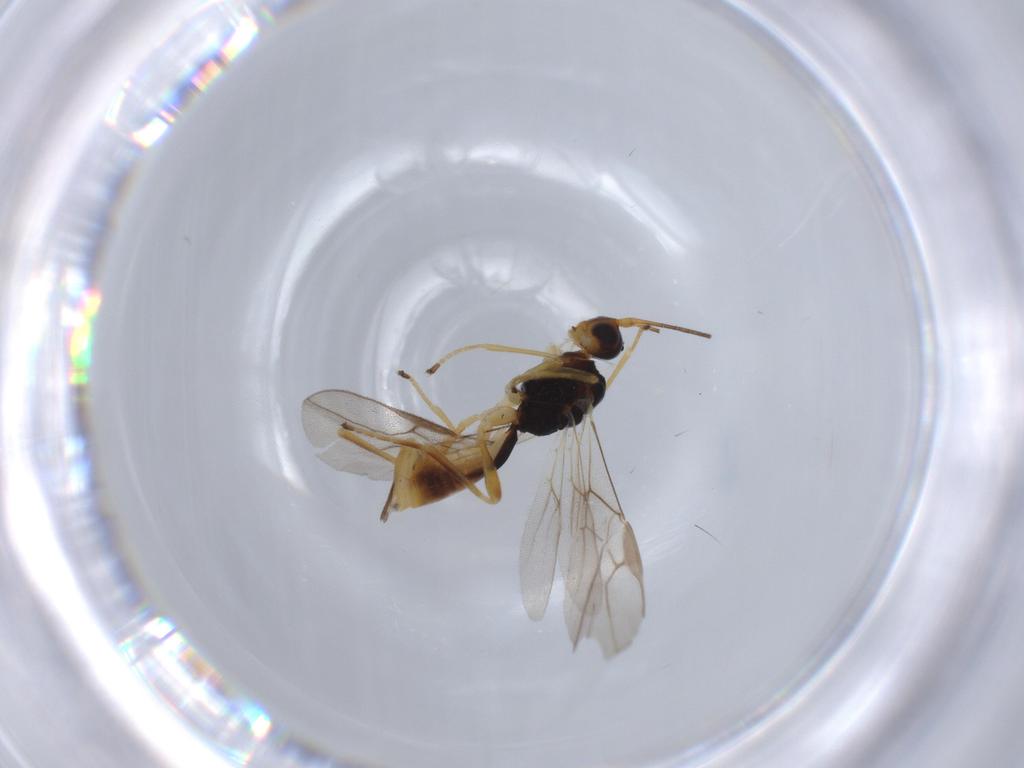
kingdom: Animalia
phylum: Arthropoda
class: Insecta
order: Hymenoptera
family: Braconidae
